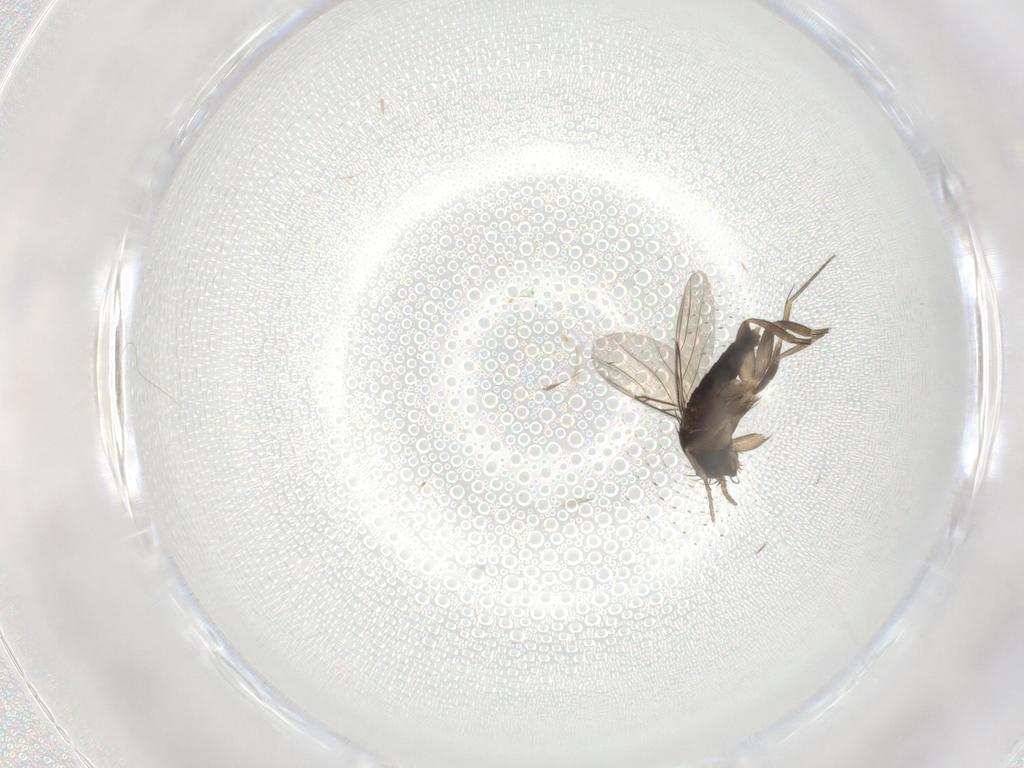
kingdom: Animalia
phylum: Arthropoda
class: Insecta
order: Diptera
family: Phoridae
